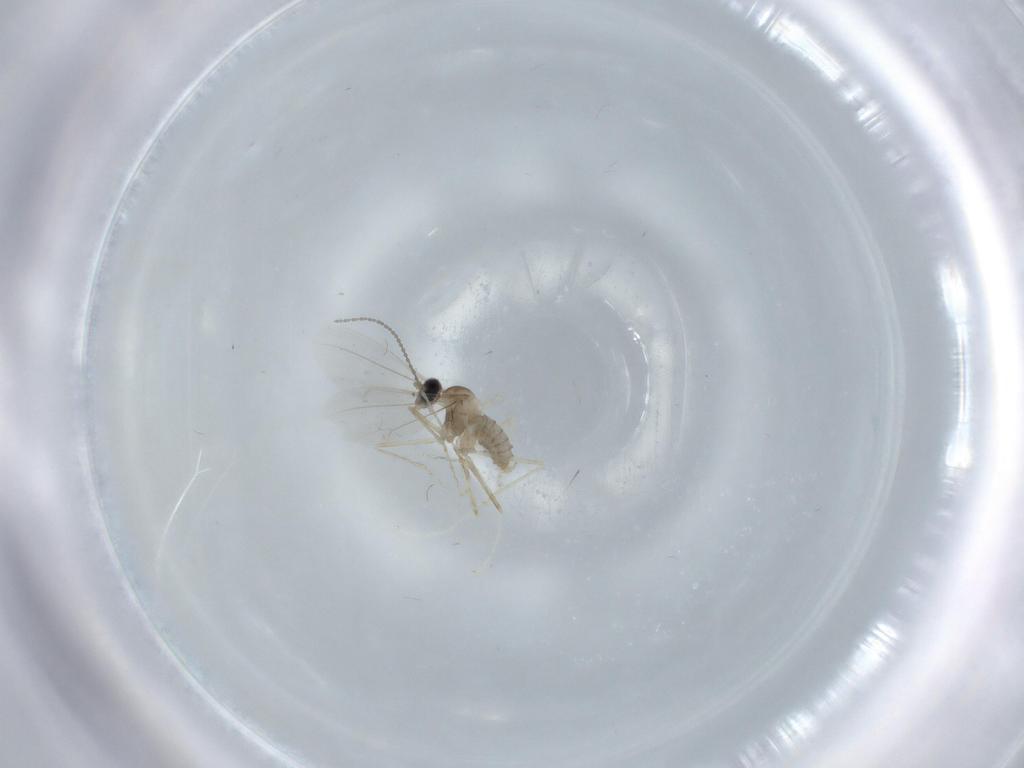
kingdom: Animalia
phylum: Arthropoda
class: Insecta
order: Diptera
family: Cecidomyiidae
